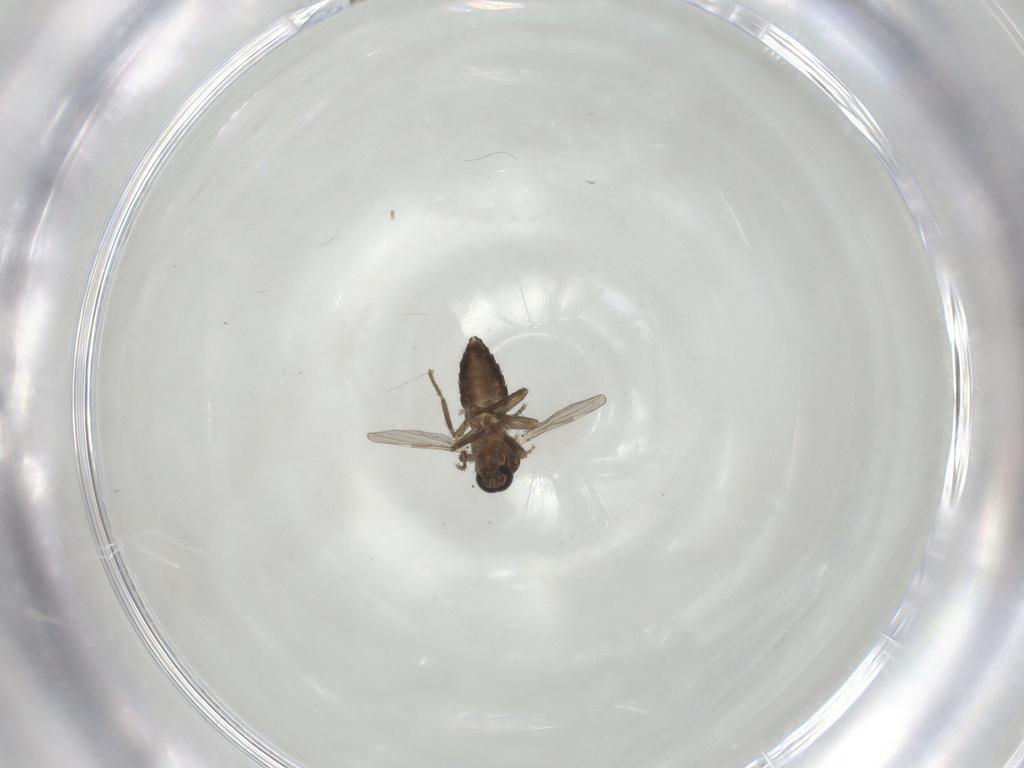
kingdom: Animalia
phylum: Arthropoda
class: Insecta
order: Diptera
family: Ceratopogonidae
